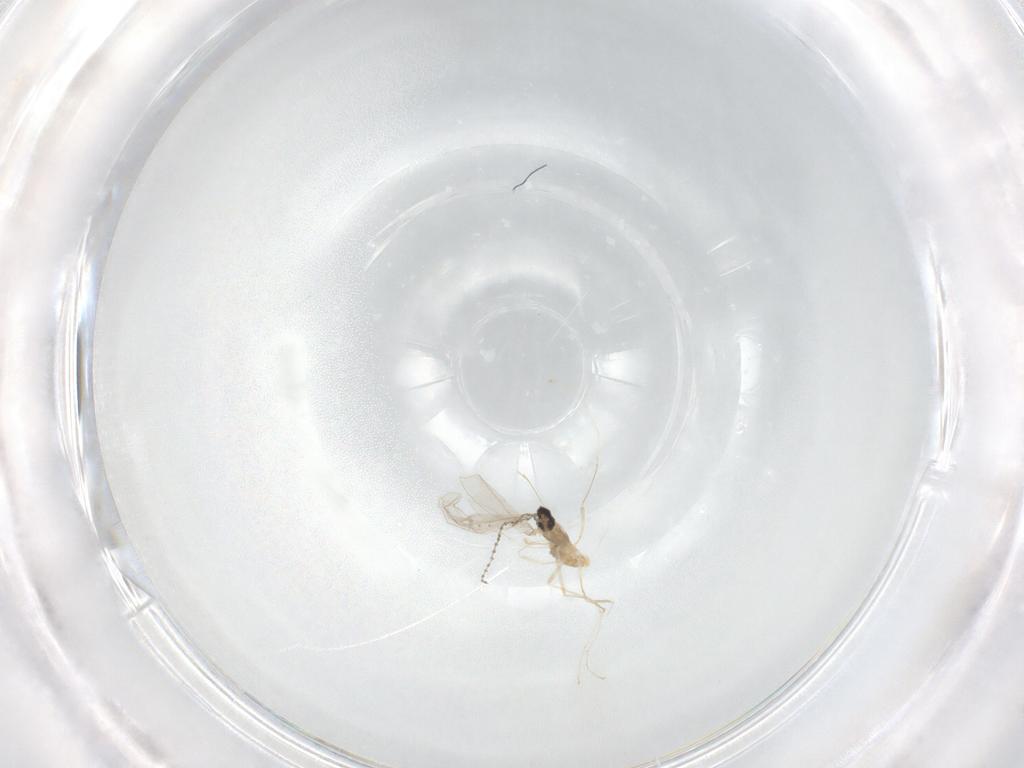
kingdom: Animalia
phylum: Arthropoda
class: Insecta
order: Diptera
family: Cecidomyiidae
